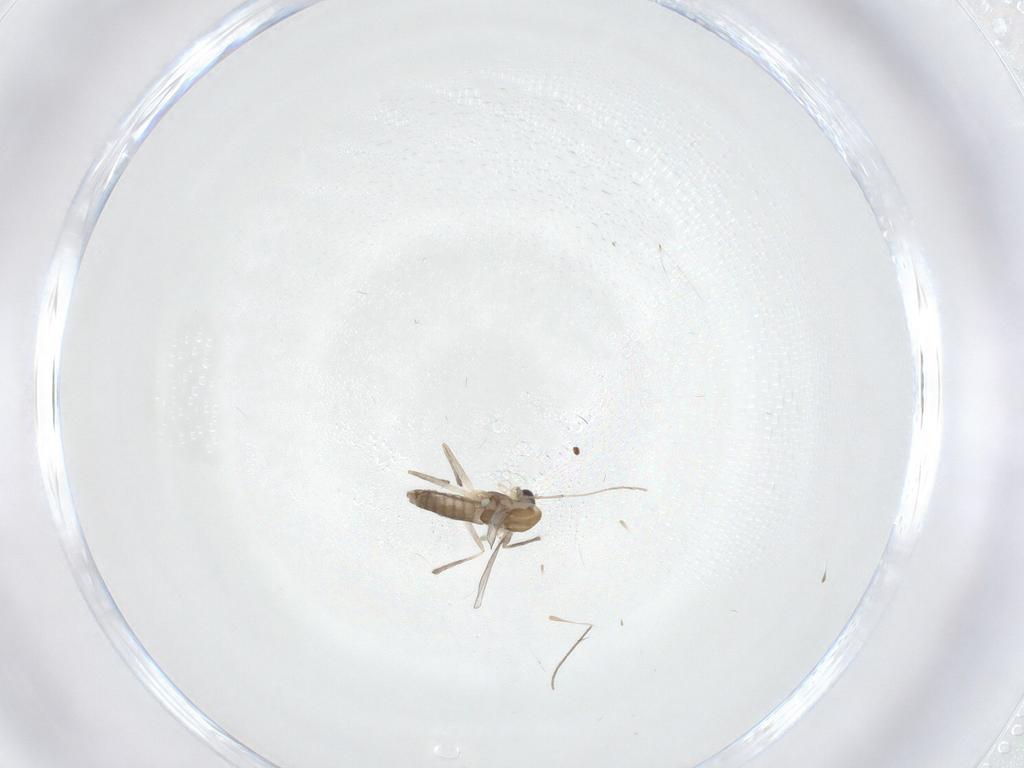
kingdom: Animalia
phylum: Arthropoda
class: Insecta
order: Diptera
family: Chironomidae
